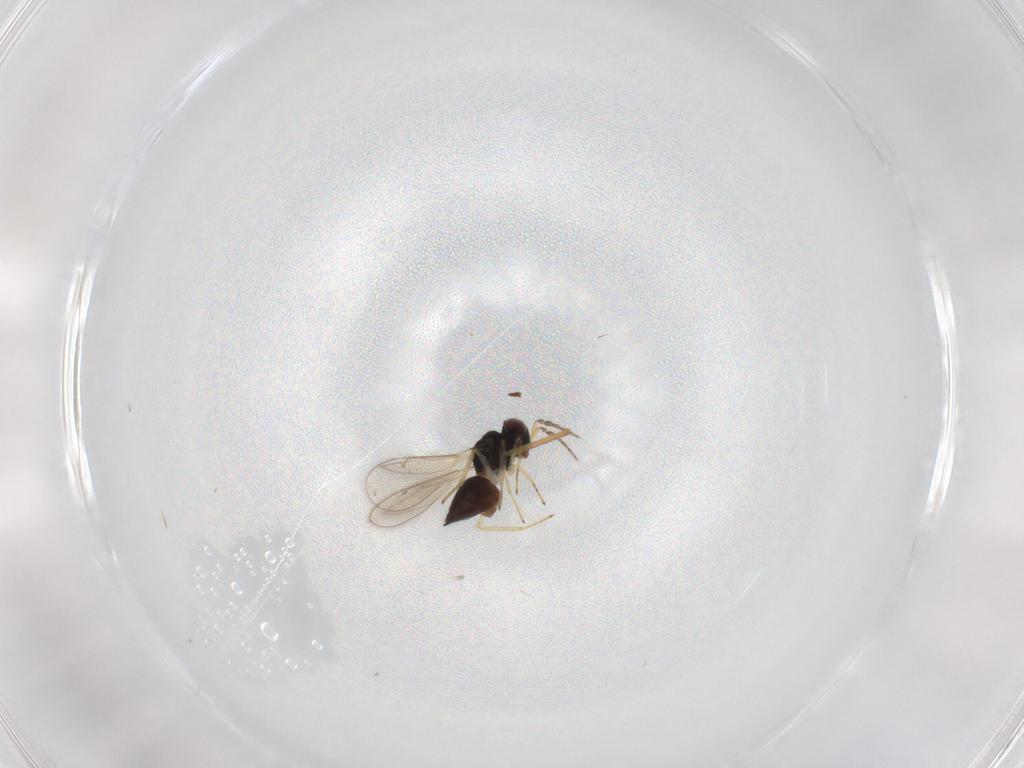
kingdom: Animalia
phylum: Arthropoda
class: Insecta
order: Hymenoptera
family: Eulophidae
